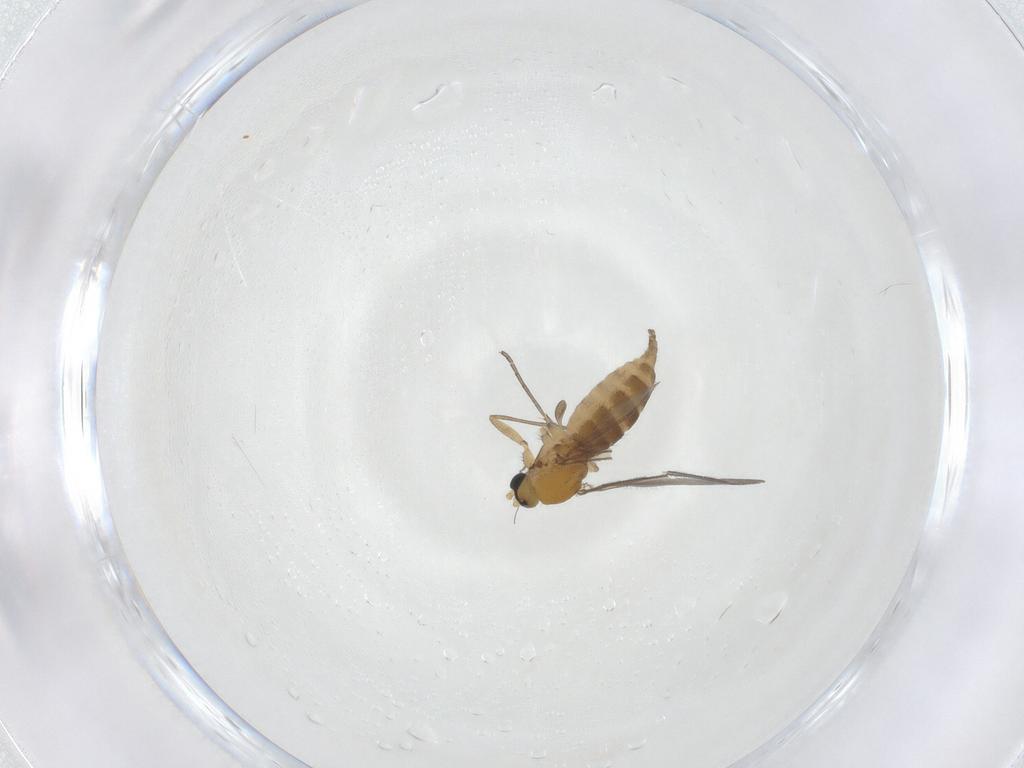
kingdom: Animalia
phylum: Arthropoda
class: Insecta
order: Diptera
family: Sciaridae
